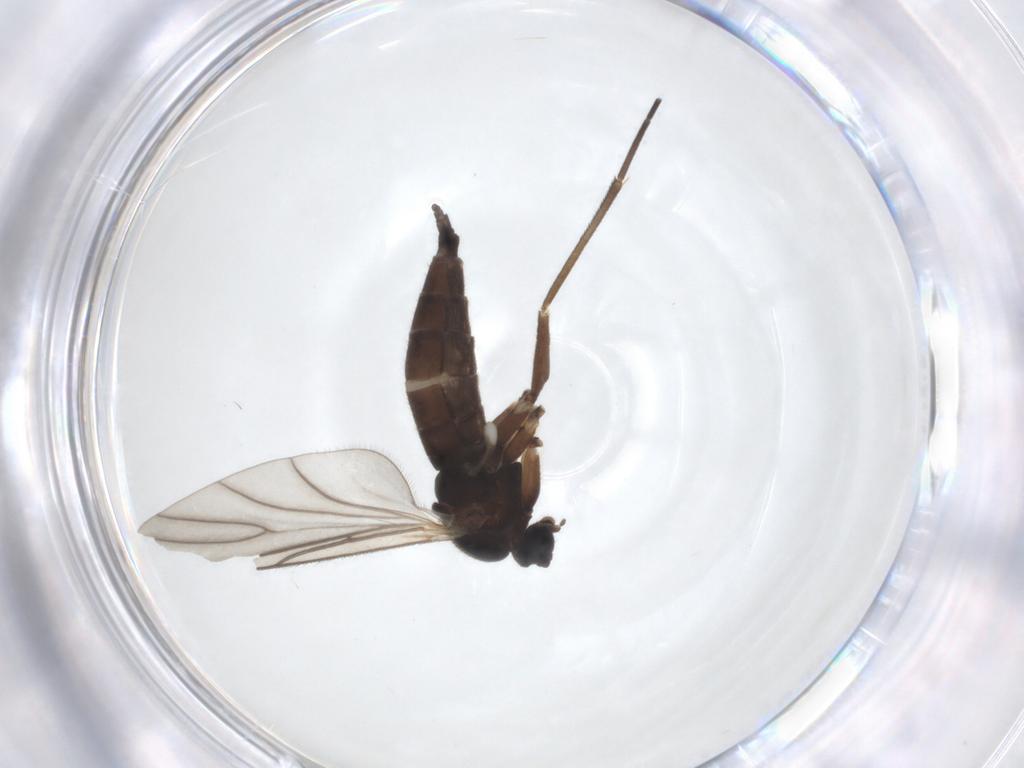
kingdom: Animalia
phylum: Arthropoda
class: Insecta
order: Diptera
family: Sciaridae
